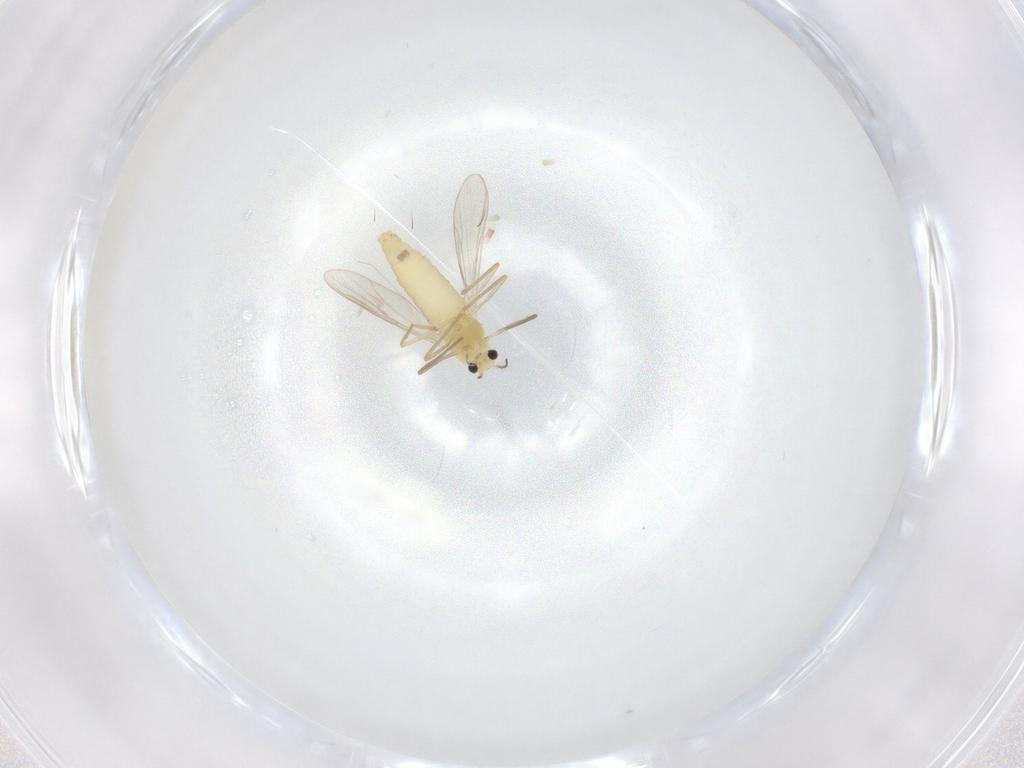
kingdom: Animalia
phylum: Arthropoda
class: Insecta
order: Diptera
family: Chironomidae
